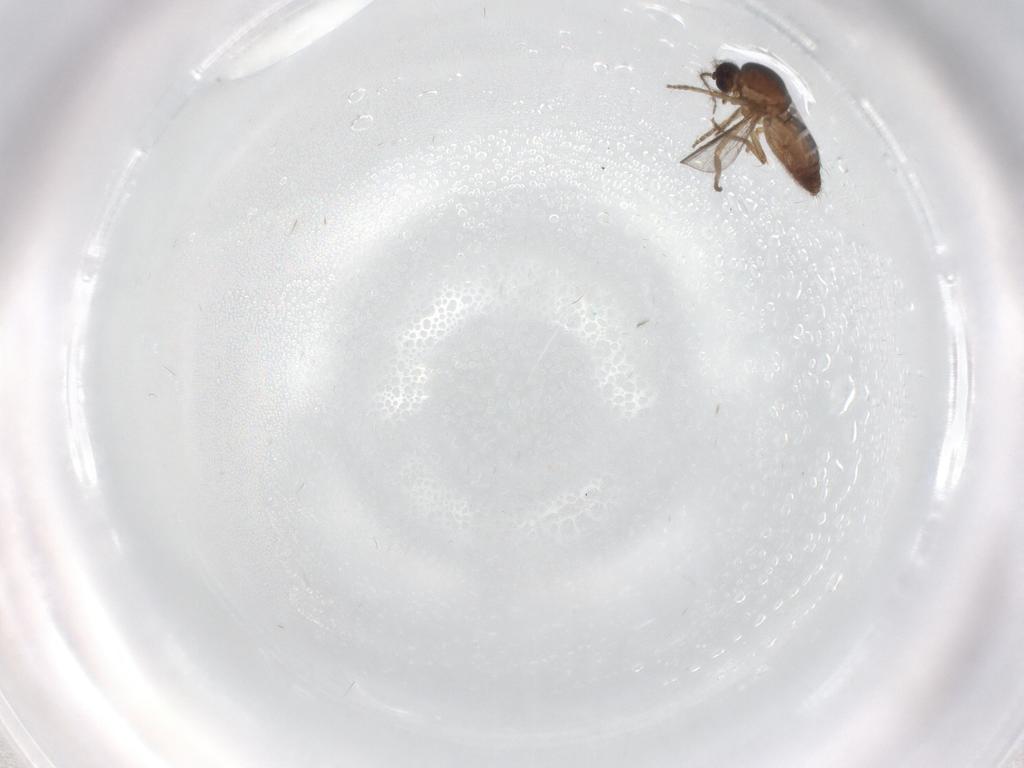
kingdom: Animalia
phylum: Arthropoda
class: Insecta
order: Diptera
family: Ceratopogonidae
